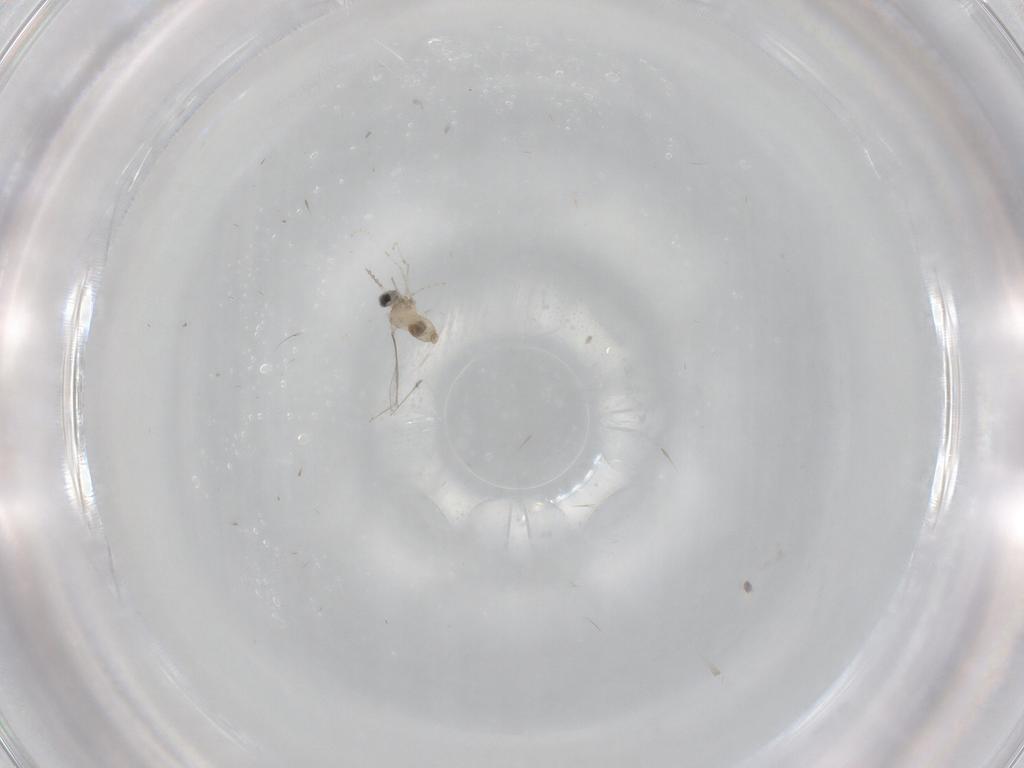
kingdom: Animalia
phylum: Arthropoda
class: Insecta
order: Diptera
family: Cecidomyiidae
